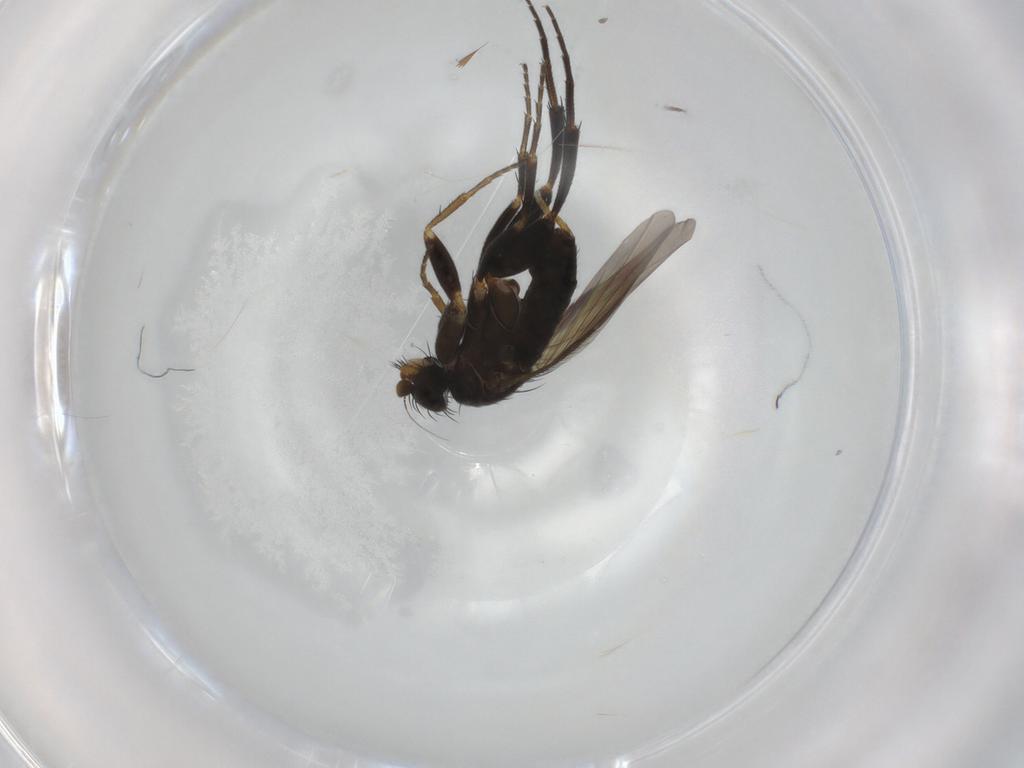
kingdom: Animalia
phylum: Arthropoda
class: Insecta
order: Diptera
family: Phoridae
